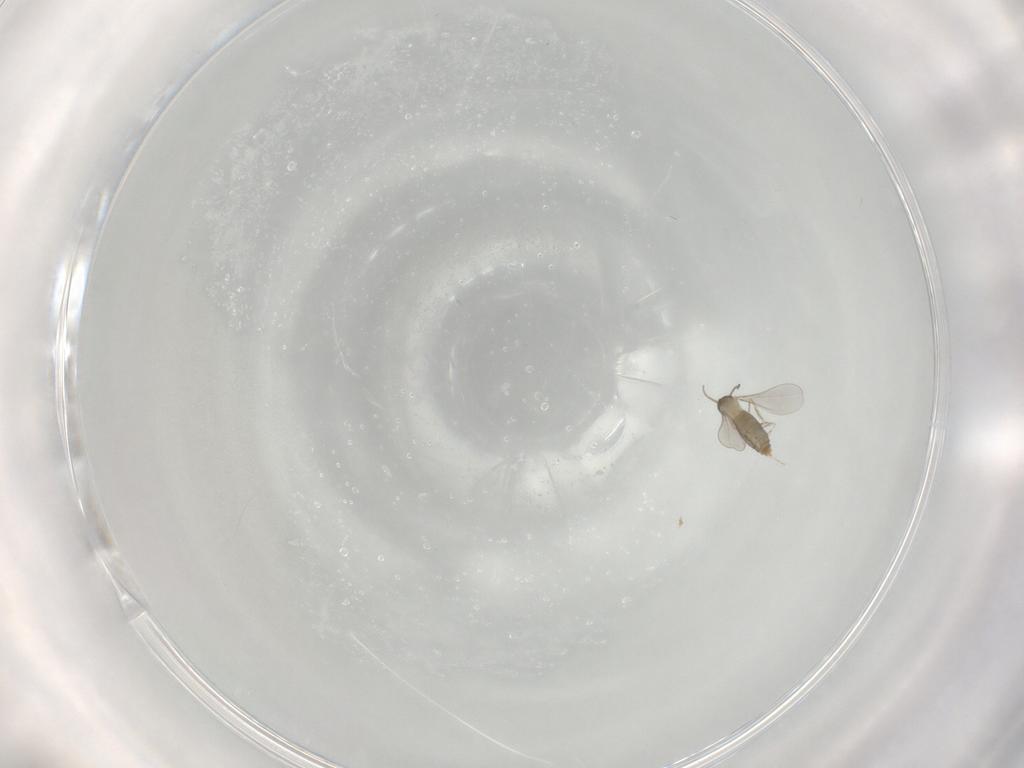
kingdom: Animalia
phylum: Arthropoda
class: Insecta
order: Diptera
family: Cecidomyiidae
